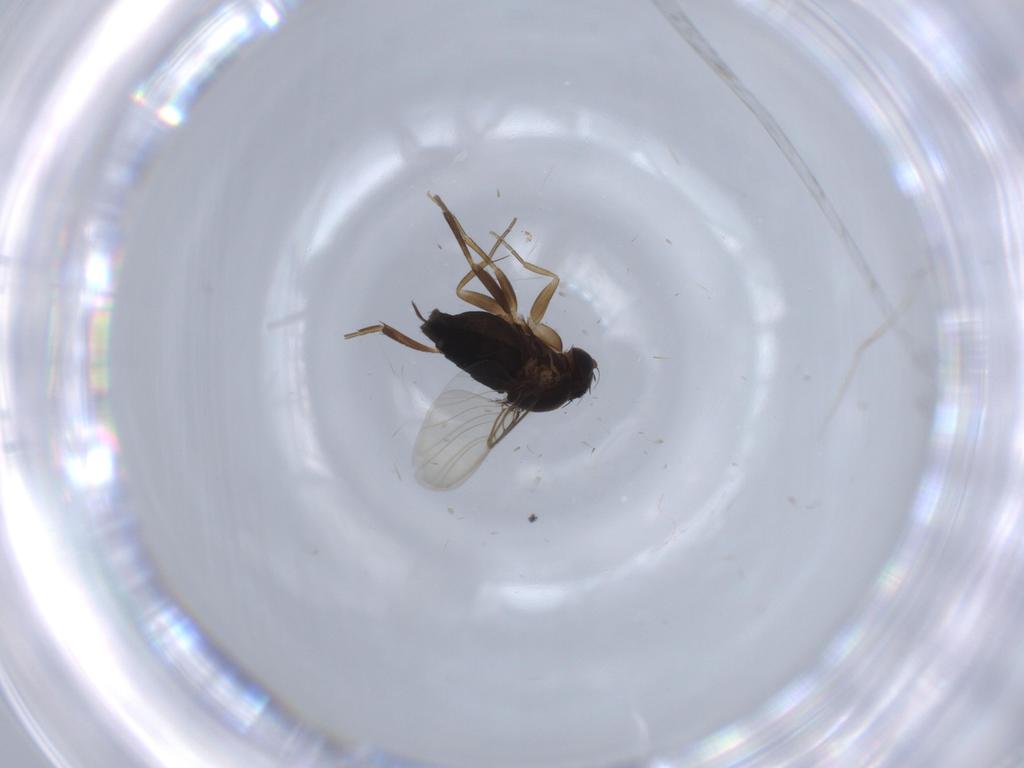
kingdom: Animalia
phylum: Arthropoda
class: Insecta
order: Diptera
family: Phoridae
